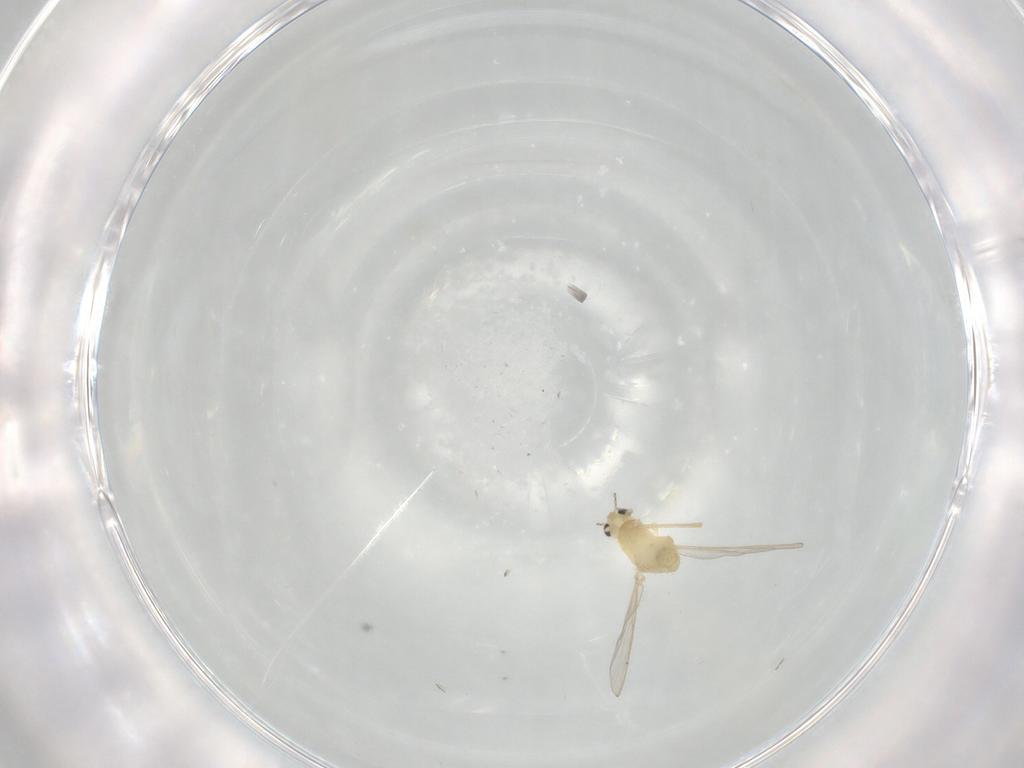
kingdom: Animalia
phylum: Arthropoda
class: Insecta
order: Diptera
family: Chironomidae
